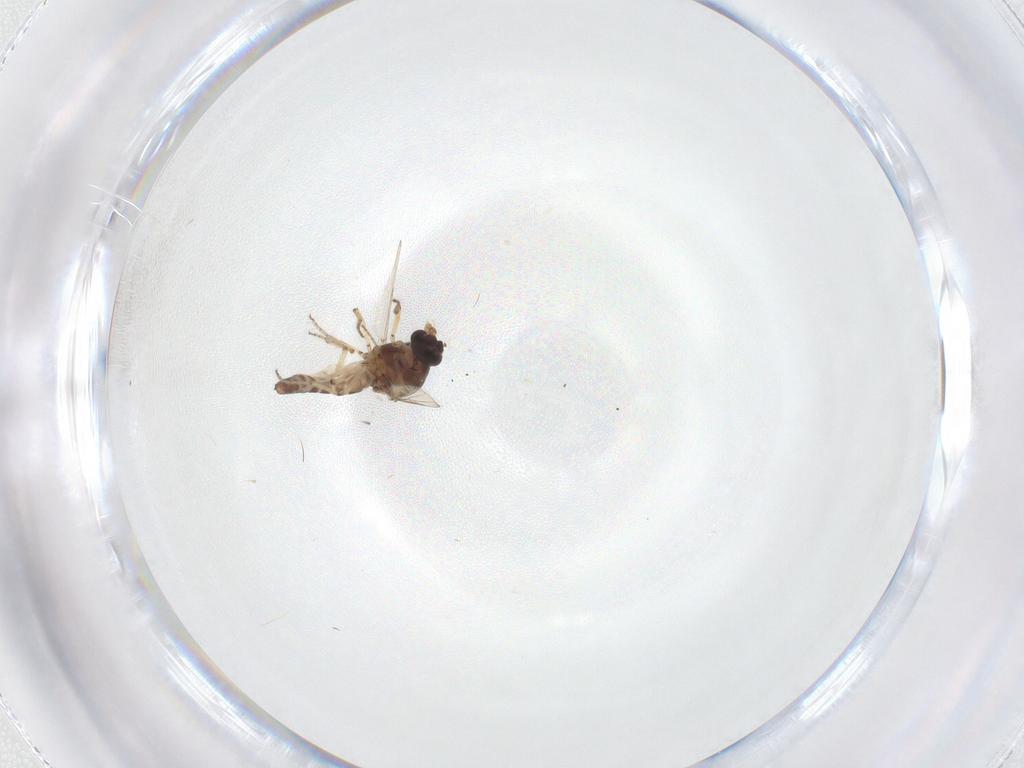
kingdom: Animalia
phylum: Arthropoda
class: Insecta
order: Diptera
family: Ceratopogonidae
